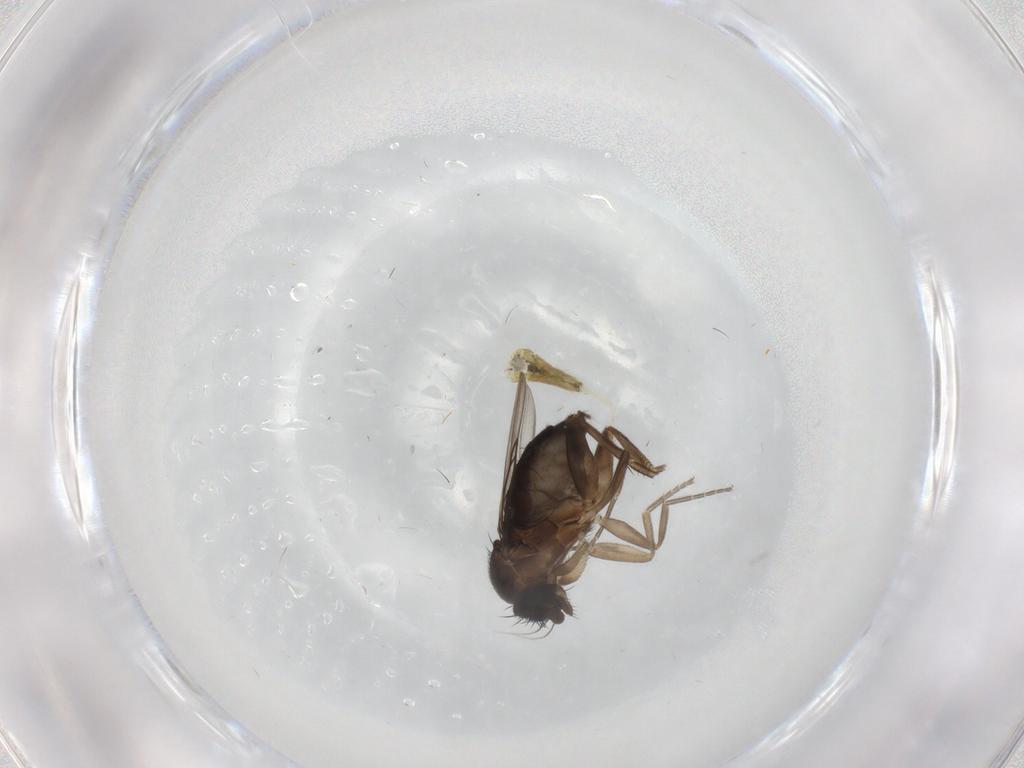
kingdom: Animalia
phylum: Arthropoda
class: Insecta
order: Diptera
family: Phoridae
